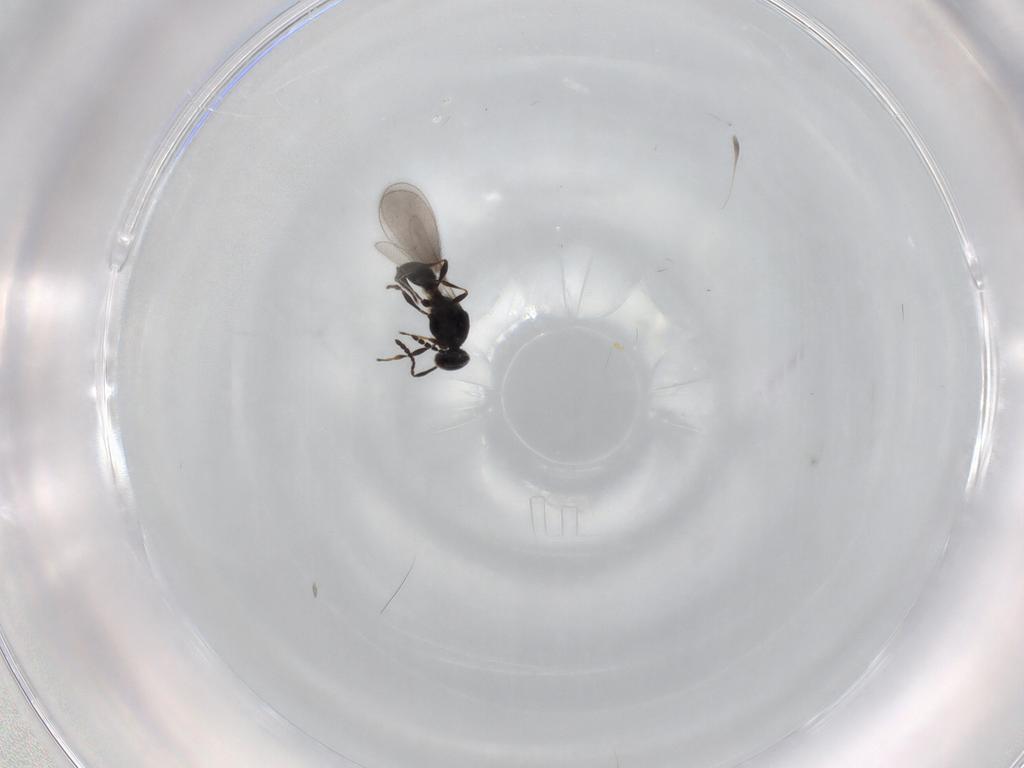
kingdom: Animalia
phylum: Arthropoda
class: Insecta
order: Hymenoptera
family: Platygastridae
